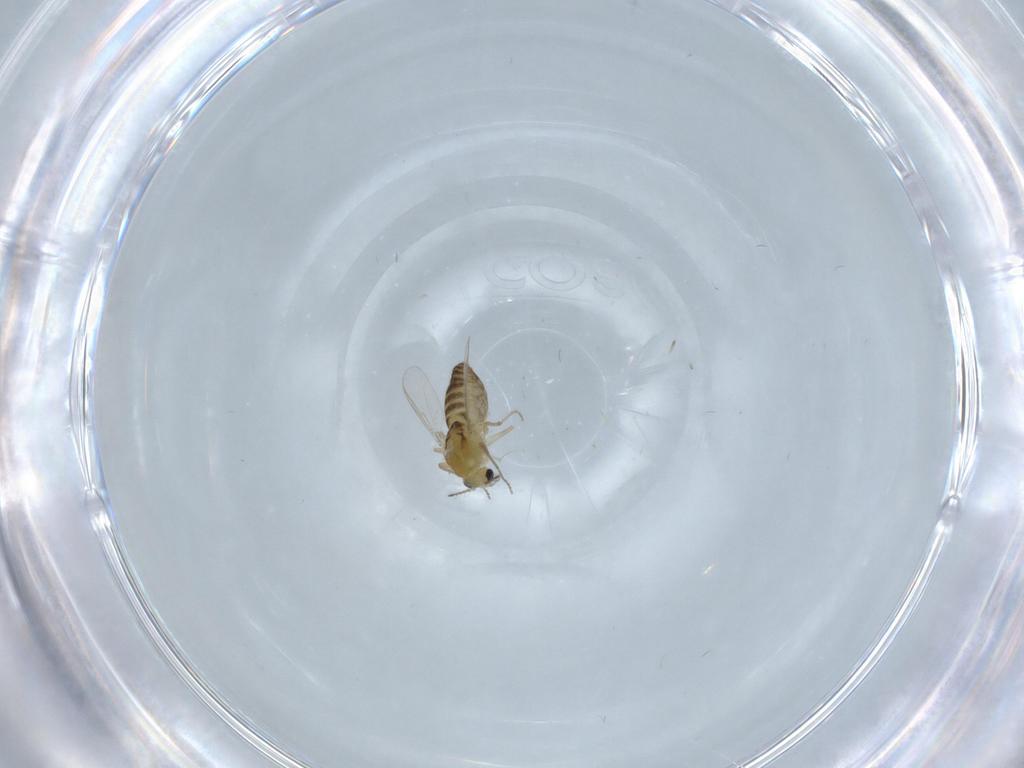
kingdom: Animalia
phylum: Arthropoda
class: Insecta
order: Diptera
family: Chironomidae
